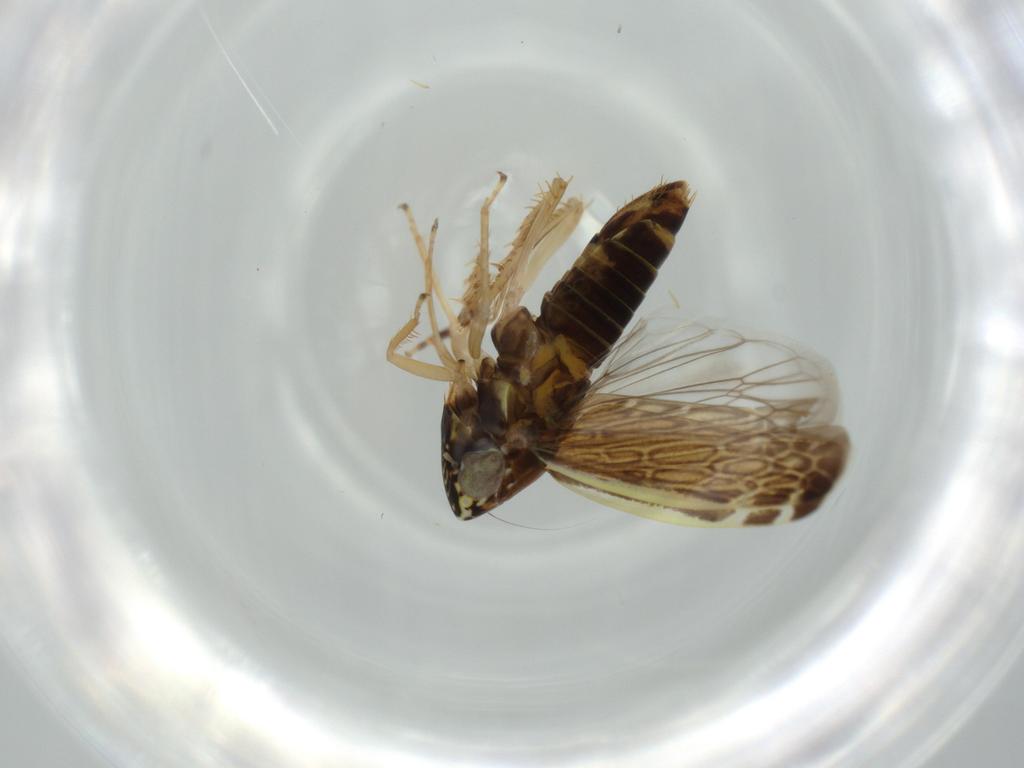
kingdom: Animalia
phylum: Arthropoda
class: Insecta
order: Hemiptera
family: Cicadellidae
